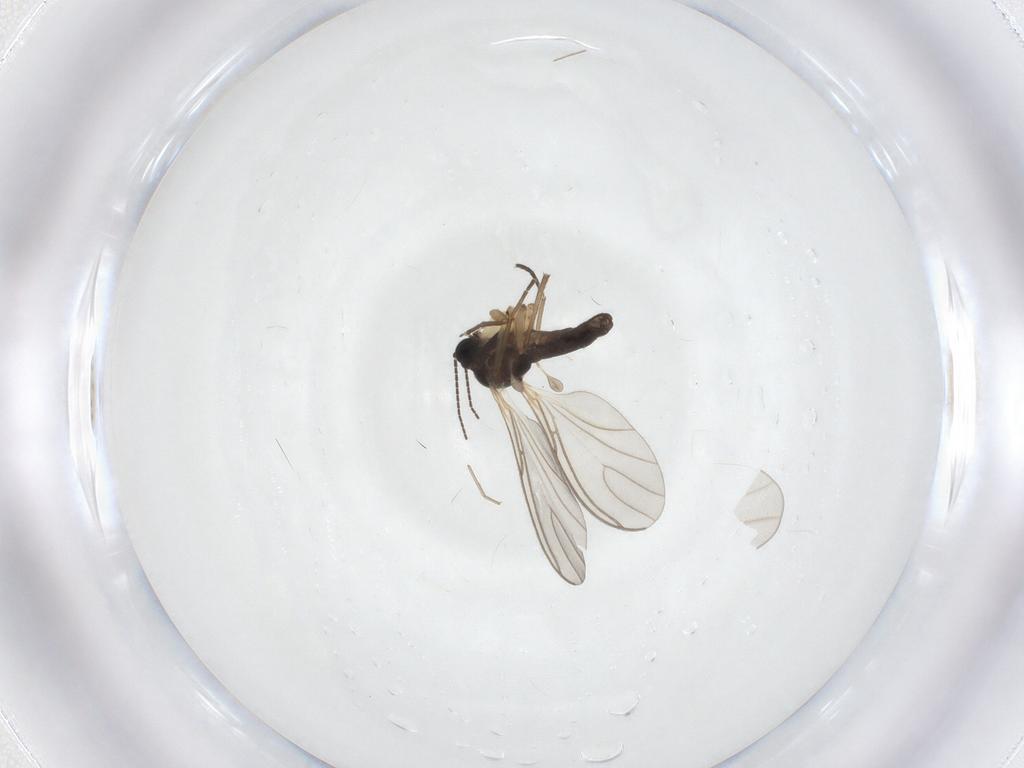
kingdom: Animalia
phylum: Arthropoda
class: Insecta
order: Diptera
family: Chironomidae
